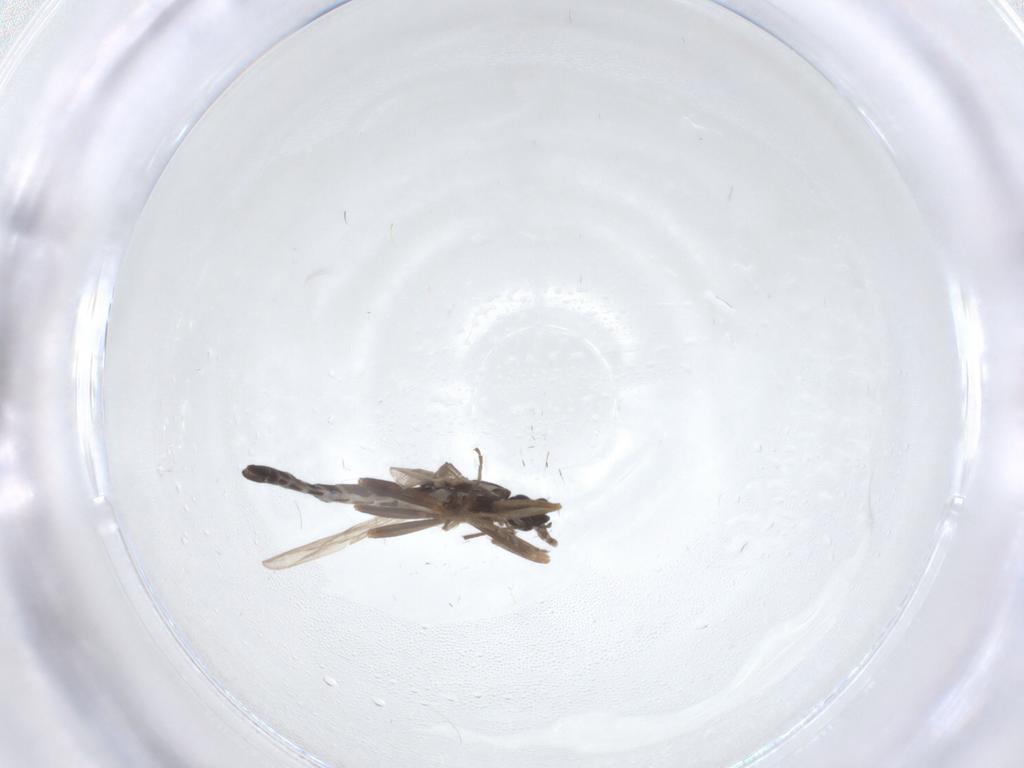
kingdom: Animalia
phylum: Arthropoda
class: Insecta
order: Diptera
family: Ceratopogonidae
